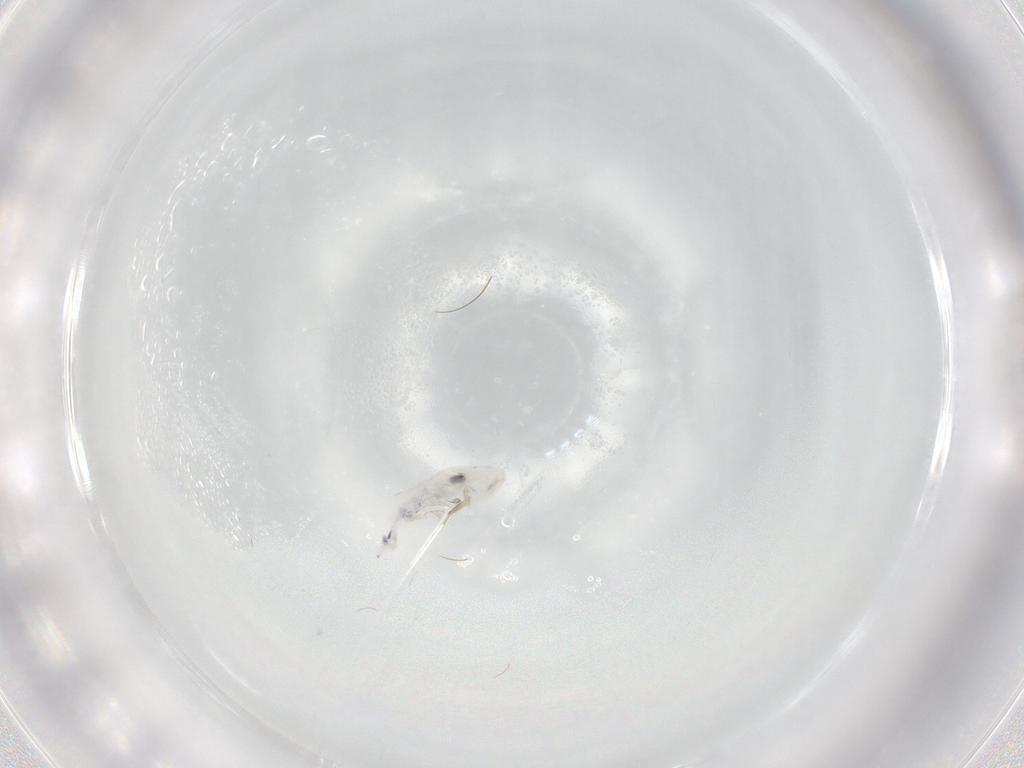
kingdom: Animalia
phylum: Arthropoda
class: Collembola
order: Entomobryomorpha
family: Entomobryidae
